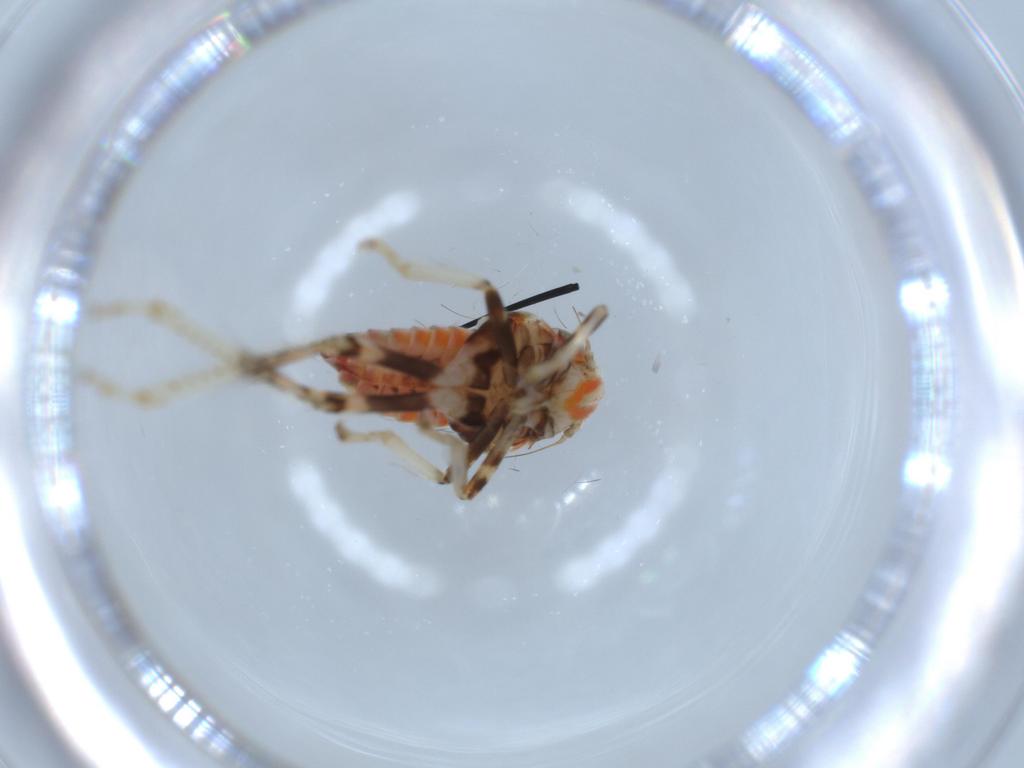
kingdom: Animalia
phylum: Arthropoda
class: Insecta
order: Hemiptera
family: Cicadellidae
